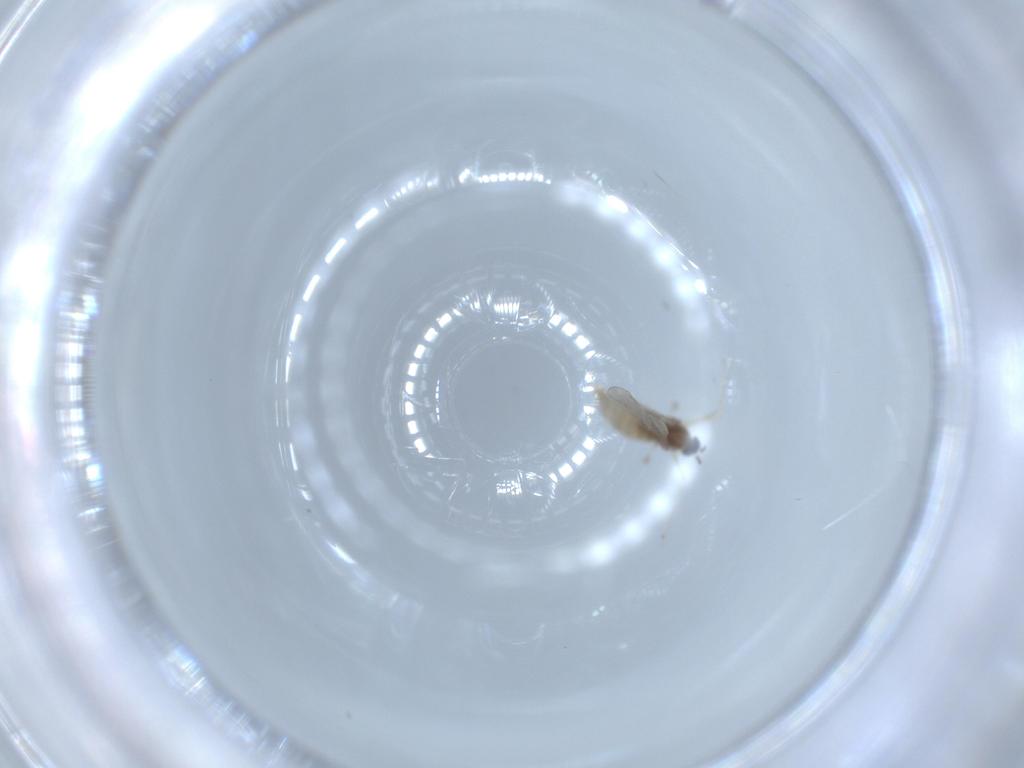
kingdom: Animalia
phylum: Arthropoda
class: Insecta
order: Diptera
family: Cecidomyiidae
